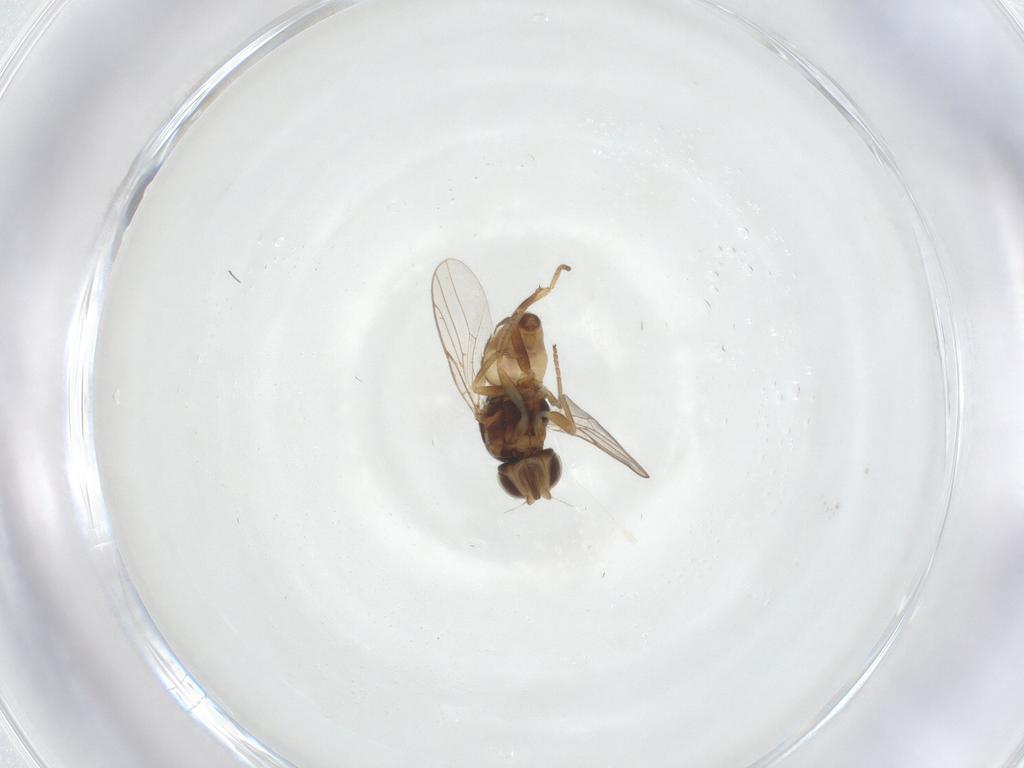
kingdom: Animalia
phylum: Arthropoda
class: Insecta
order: Diptera
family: Chloropidae
